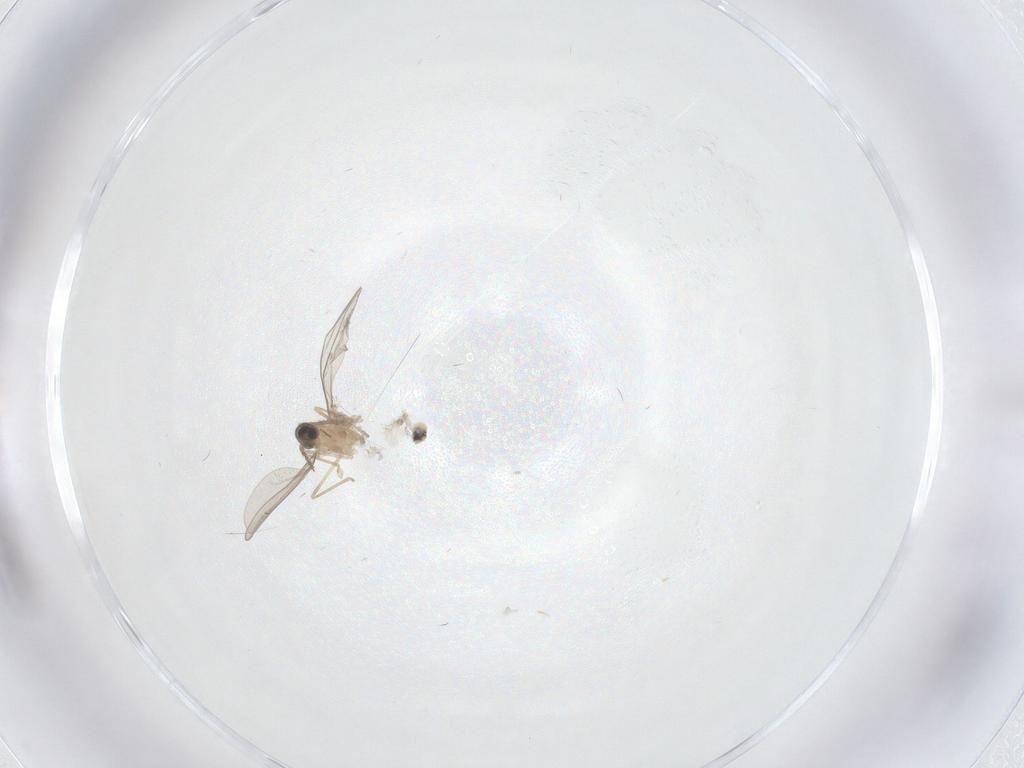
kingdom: Animalia
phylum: Arthropoda
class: Insecta
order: Diptera
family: Cecidomyiidae
